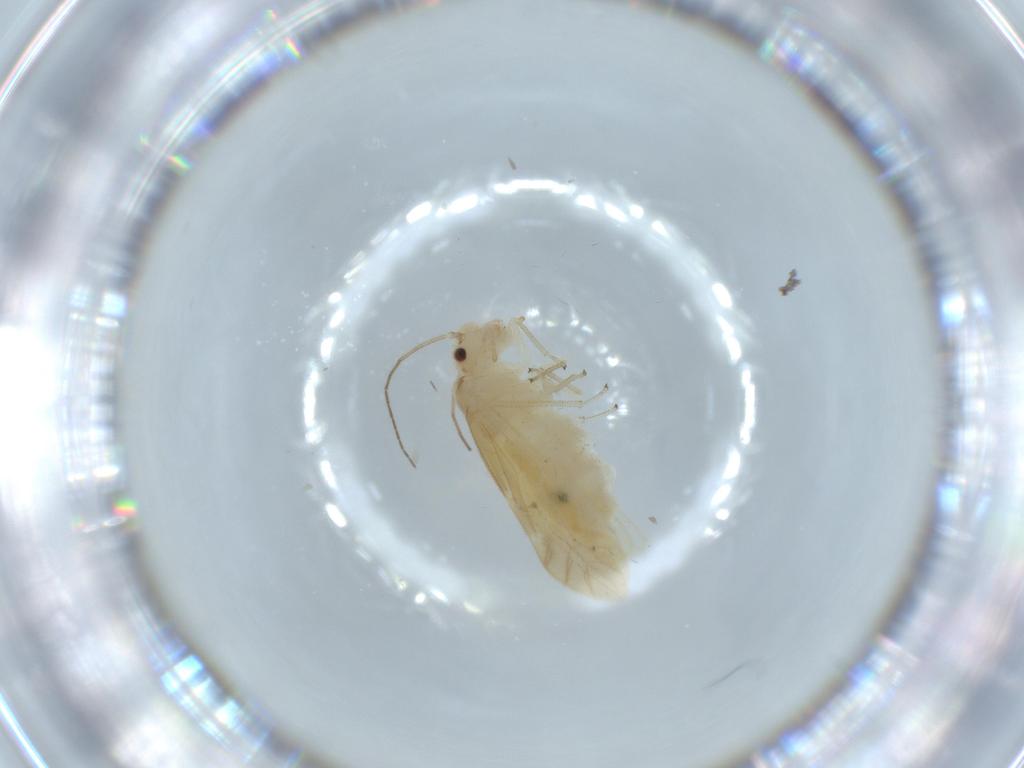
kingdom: Animalia
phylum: Arthropoda
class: Insecta
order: Psocodea
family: Caeciliusidae
